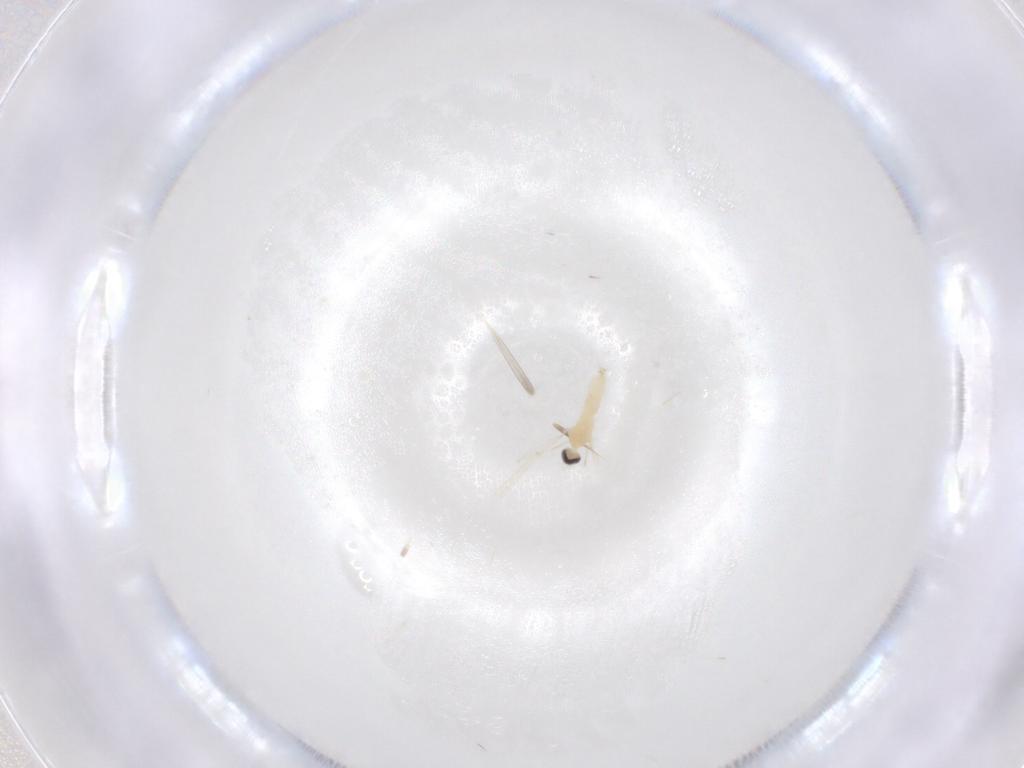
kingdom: Animalia
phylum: Arthropoda
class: Insecta
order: Diptera
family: Cecidomyiidae
